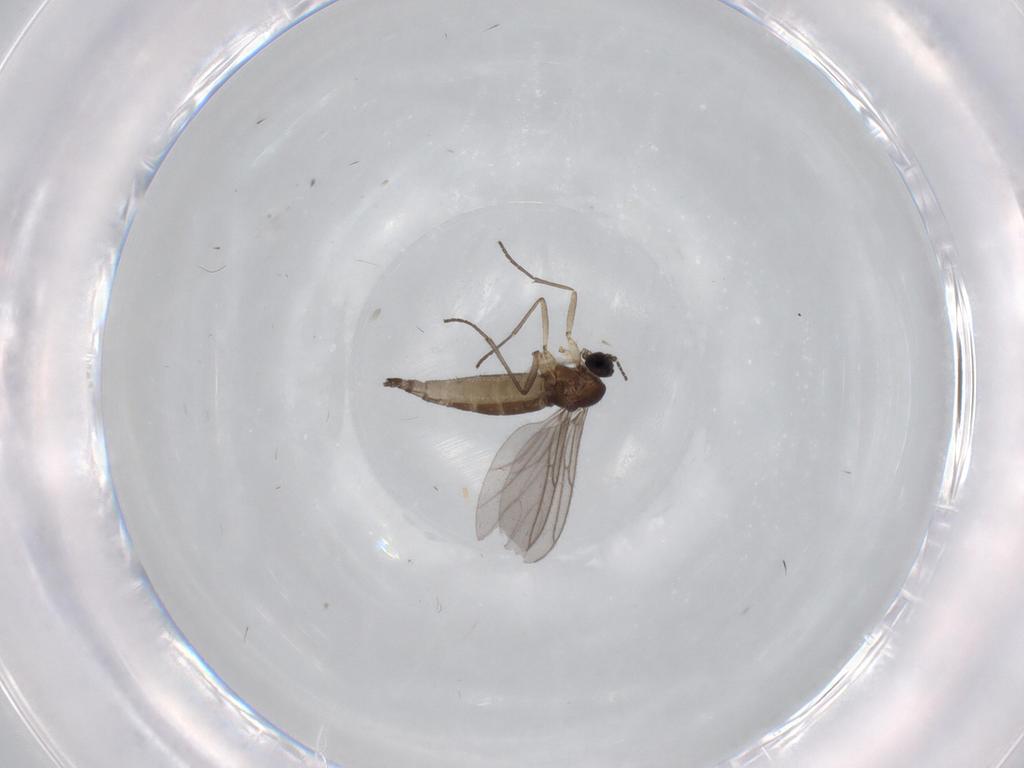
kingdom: Animalia
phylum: Arthropoda
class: Insecta
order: Diptera
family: Sciaridae
